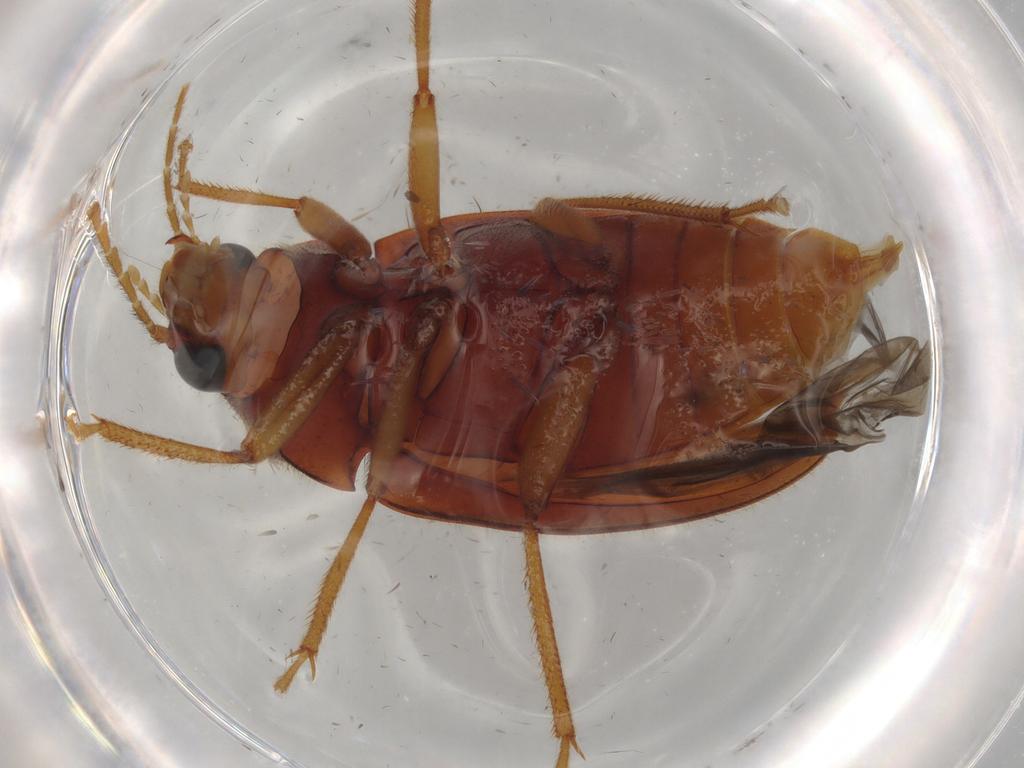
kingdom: Animalia
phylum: Arthropoda
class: Insecta
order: Coleoptera
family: Ptilodactylidae
